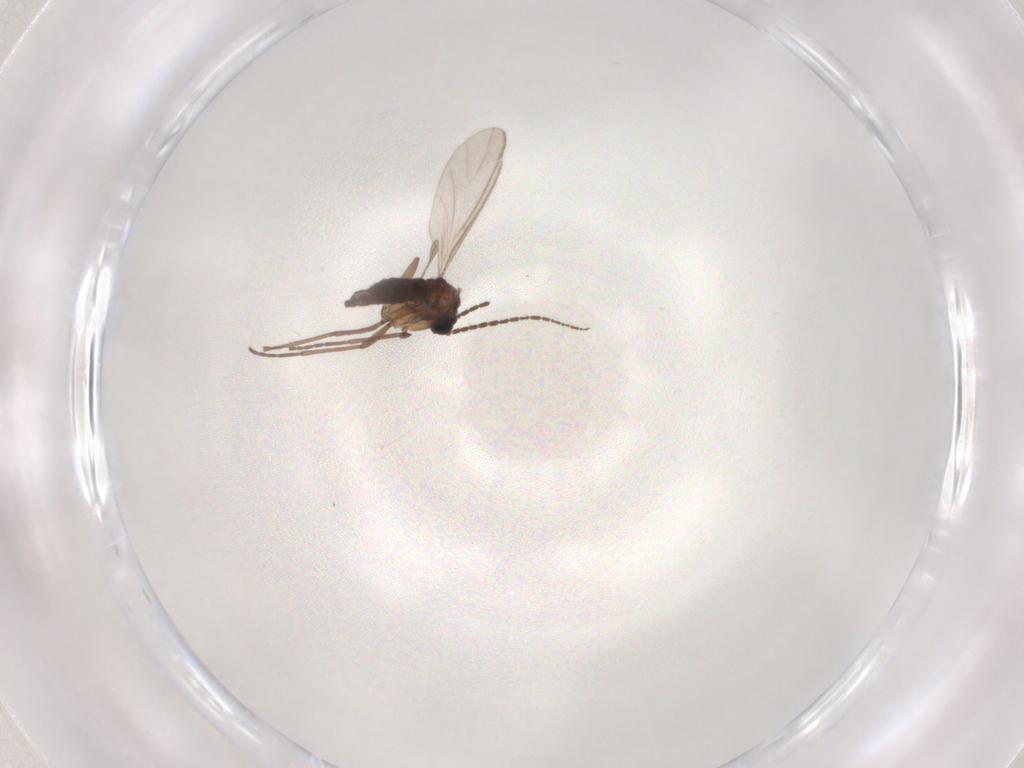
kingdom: Animalia
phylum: Arthropoda
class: Insecta
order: Diptera
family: Sciaridae
